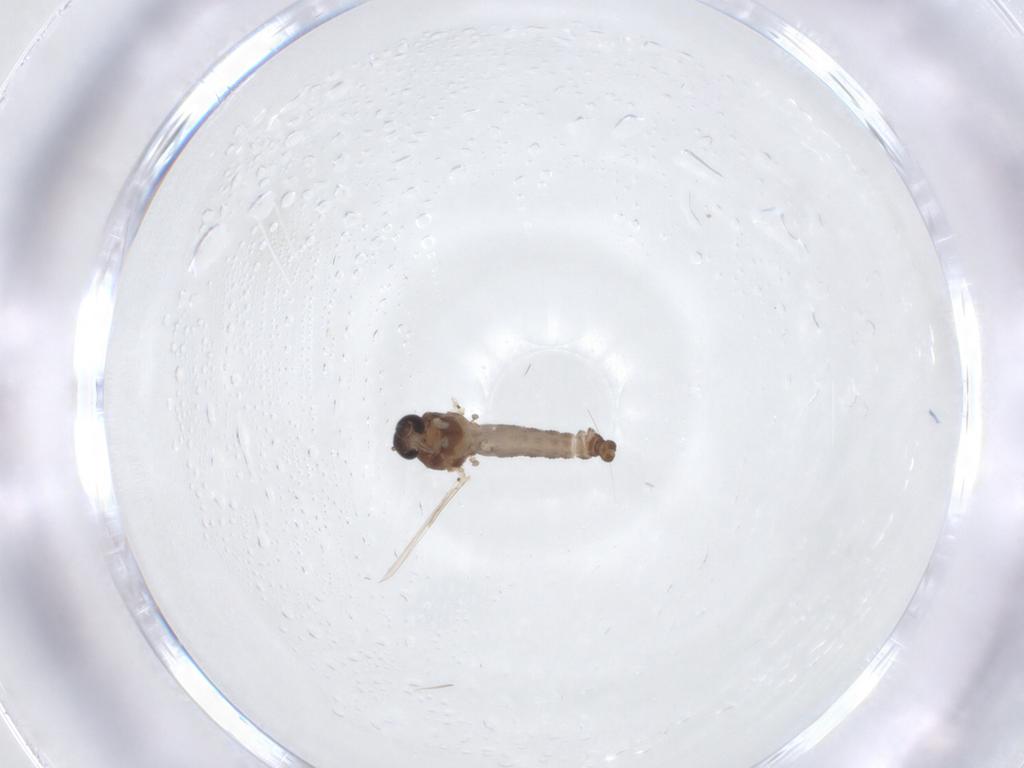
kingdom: Animalia
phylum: Arthropoda
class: Insecta
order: Diptera
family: Ceratopogonidae
